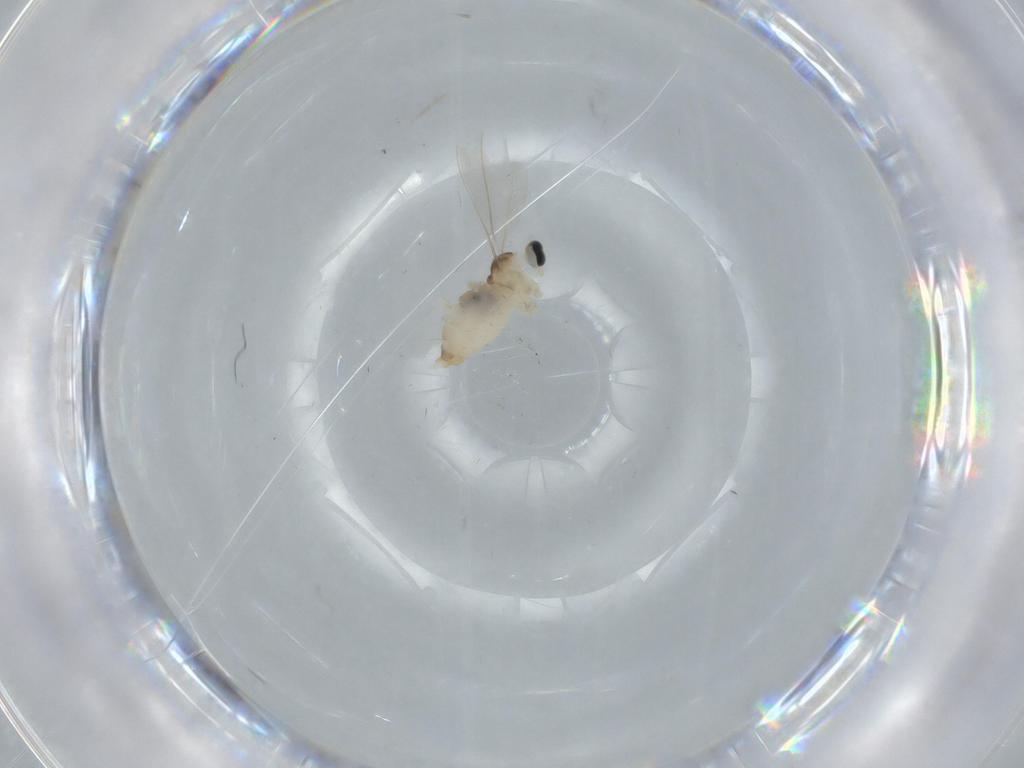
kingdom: Animalia
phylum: Arthropoda
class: Insecta
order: Diptera
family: Cecidomyiidae
